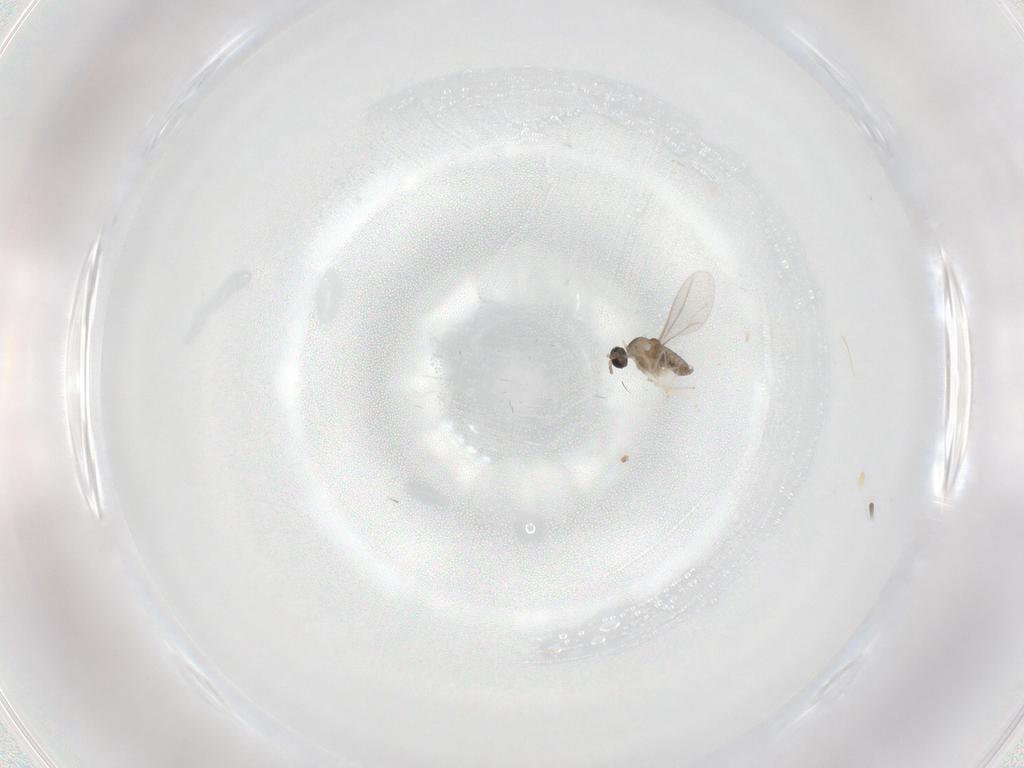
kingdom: Animalia
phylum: Arthropoda
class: Insecta
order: Diptera
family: Cecidomyiidae
